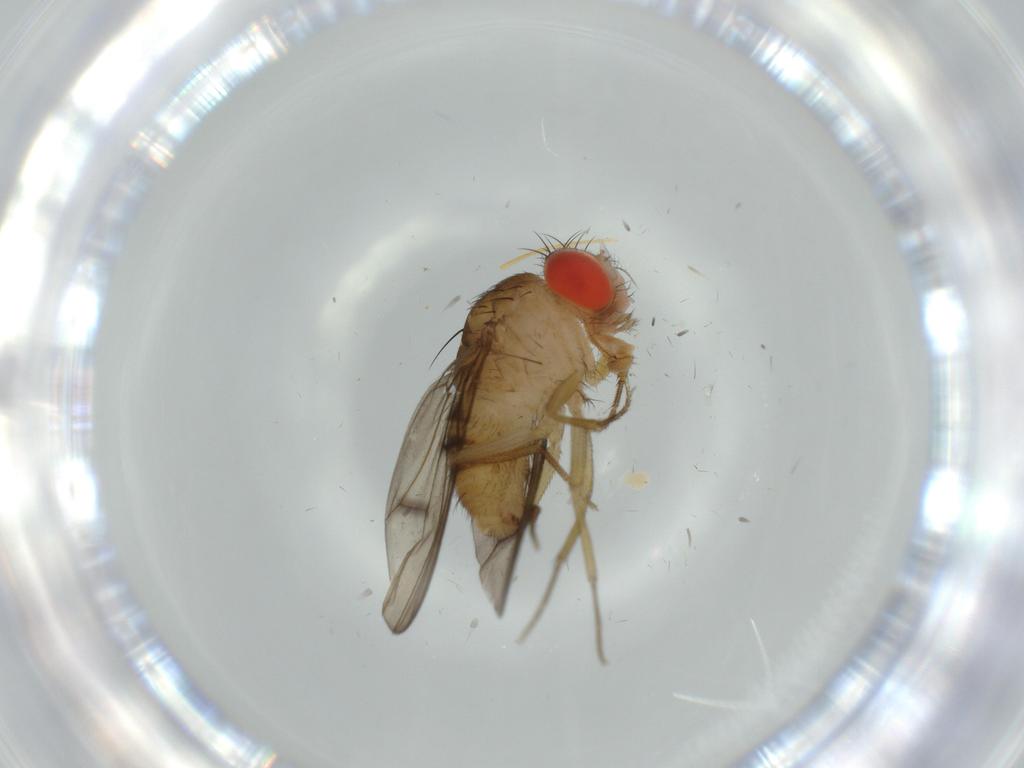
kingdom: Animalia
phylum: Arthropoda
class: Insecta
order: Diptera
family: Drosophilidae
